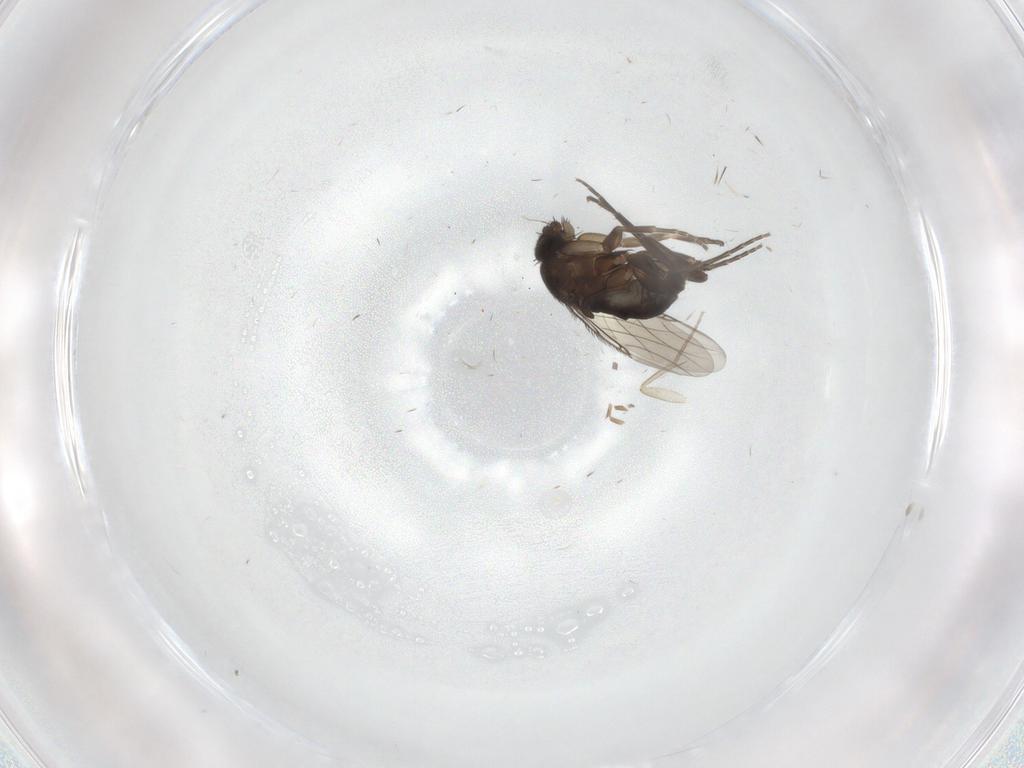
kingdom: Animalia
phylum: Arthropoda
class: Insecta
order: Diptera
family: Phoridae
